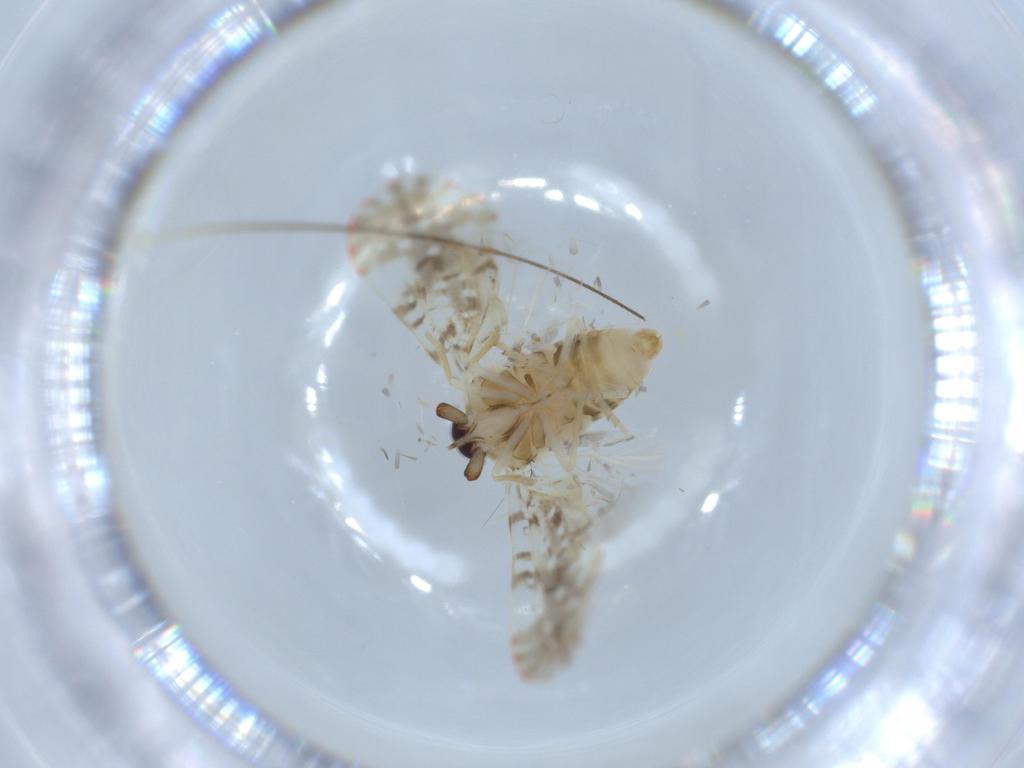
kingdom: Animalia
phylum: Arthropoda
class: Insecta
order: Hemiptera
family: Derbidae
